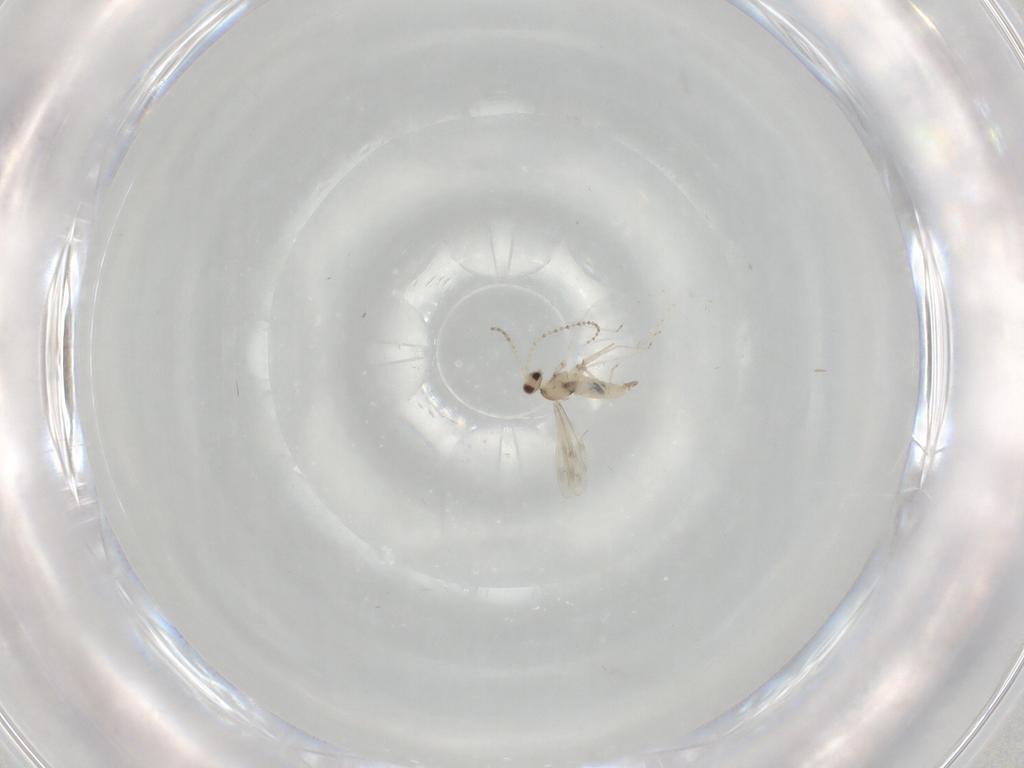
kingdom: Animalia
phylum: Arthropoda
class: Insecta
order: Diptera
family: Cecidomyiidae
